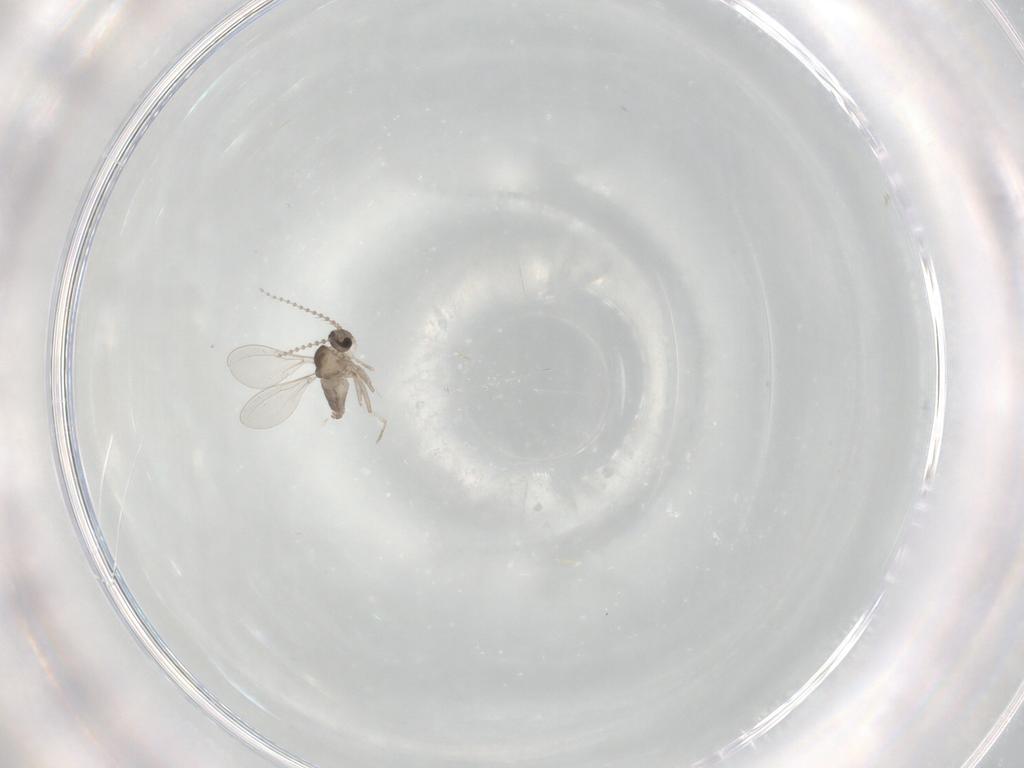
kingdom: Animalia
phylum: Arthropoda
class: Insecta
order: Diptera
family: Cecidomyiidae
